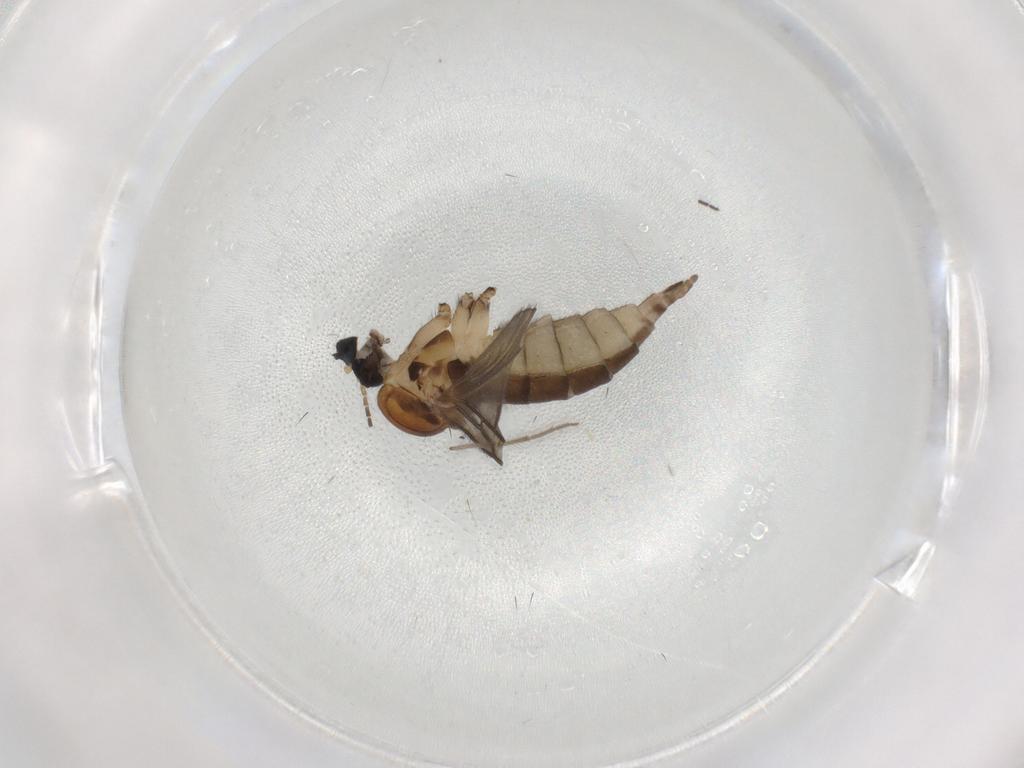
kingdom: Animalia
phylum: Arthropoda
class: Insecta
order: Diptera
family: Sciaridae
